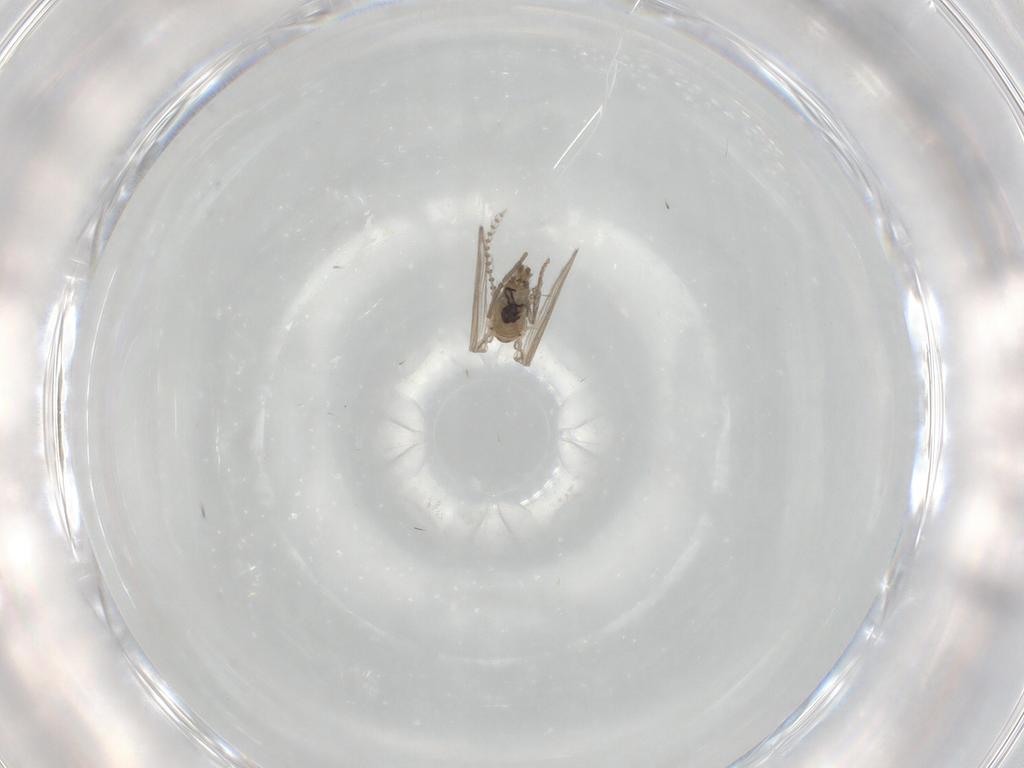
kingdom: Animalia
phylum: Arthropoda
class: Insecta
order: Diptera
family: Psychodidae
